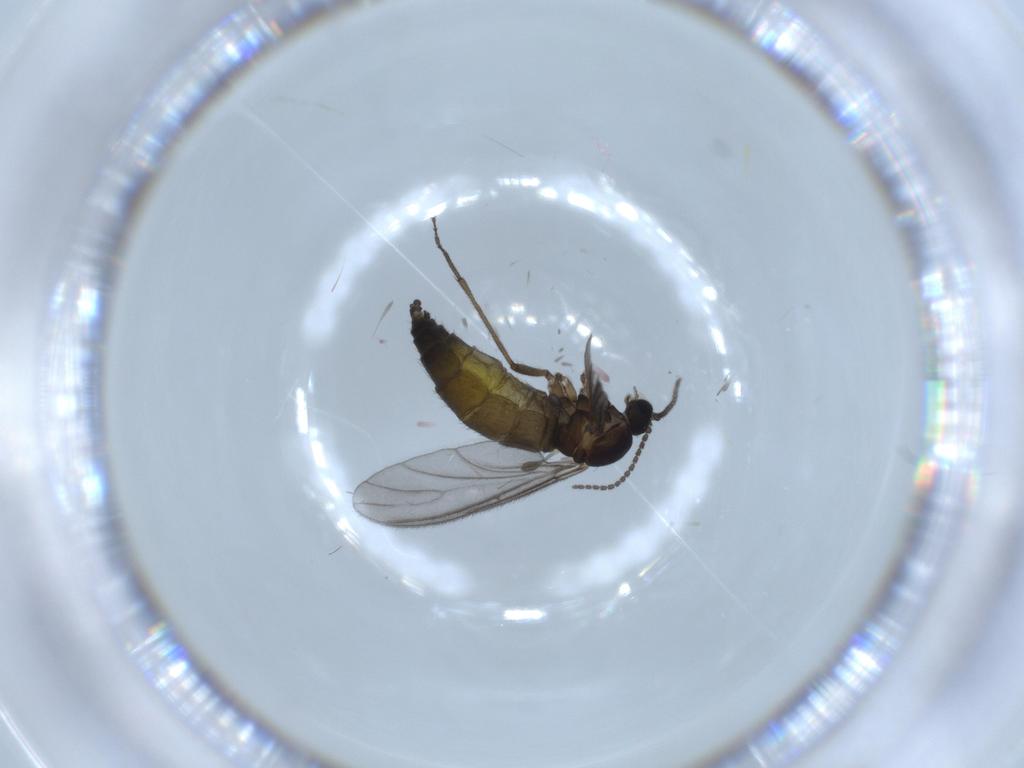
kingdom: Animalia
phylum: Arthropoda
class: Insecta
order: Diptera
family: Sciaridae
